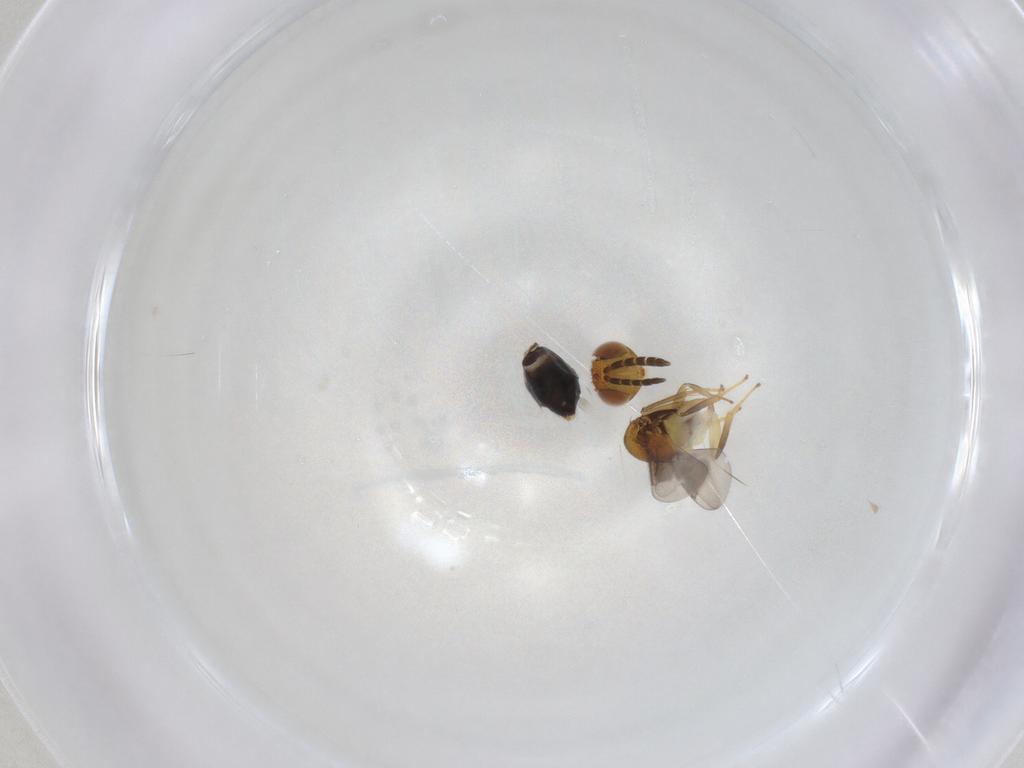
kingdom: Animalia
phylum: Arthropoda
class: Insecta
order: Hymenoptera
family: Aphelinidae
